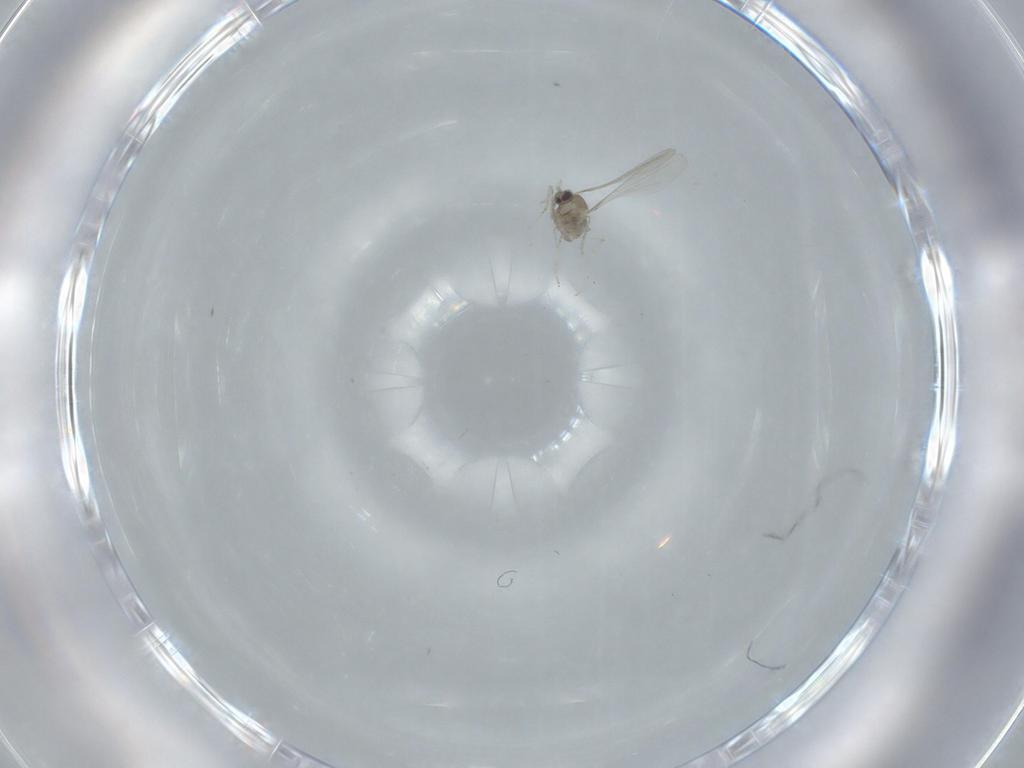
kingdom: Animalia
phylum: Arthropoda
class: Insecta
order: Diptera
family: Cecidomyiidae
